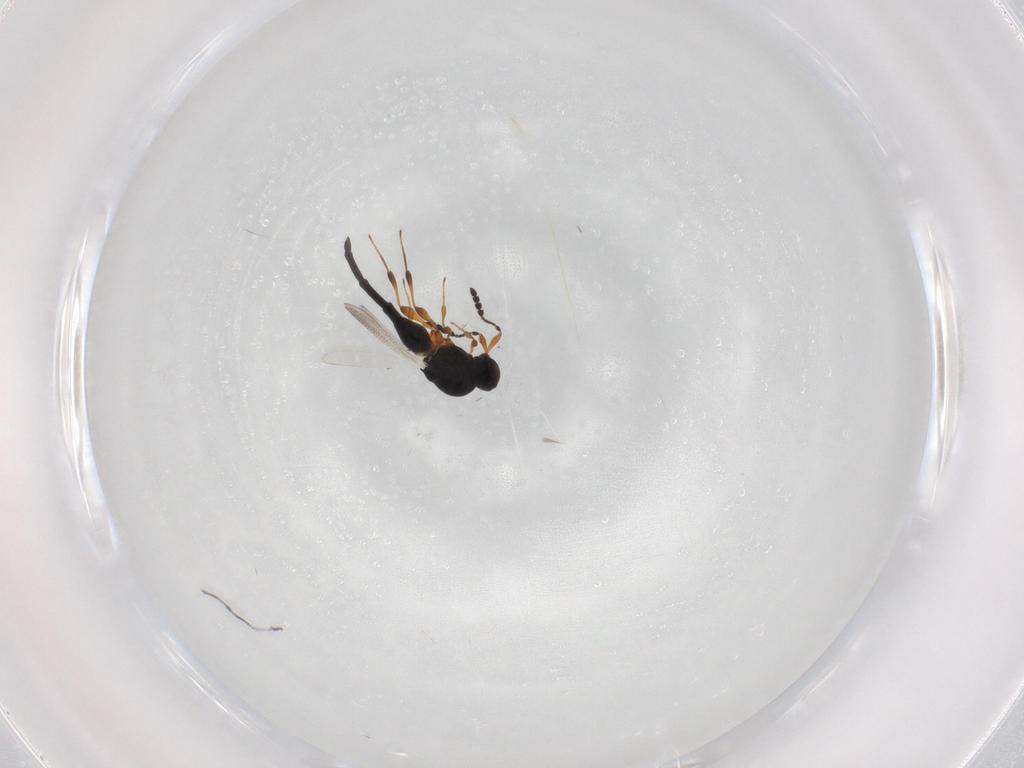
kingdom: Animalia
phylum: Arthropoda
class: Insecta
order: Hymenoptera
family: Platygastridae
